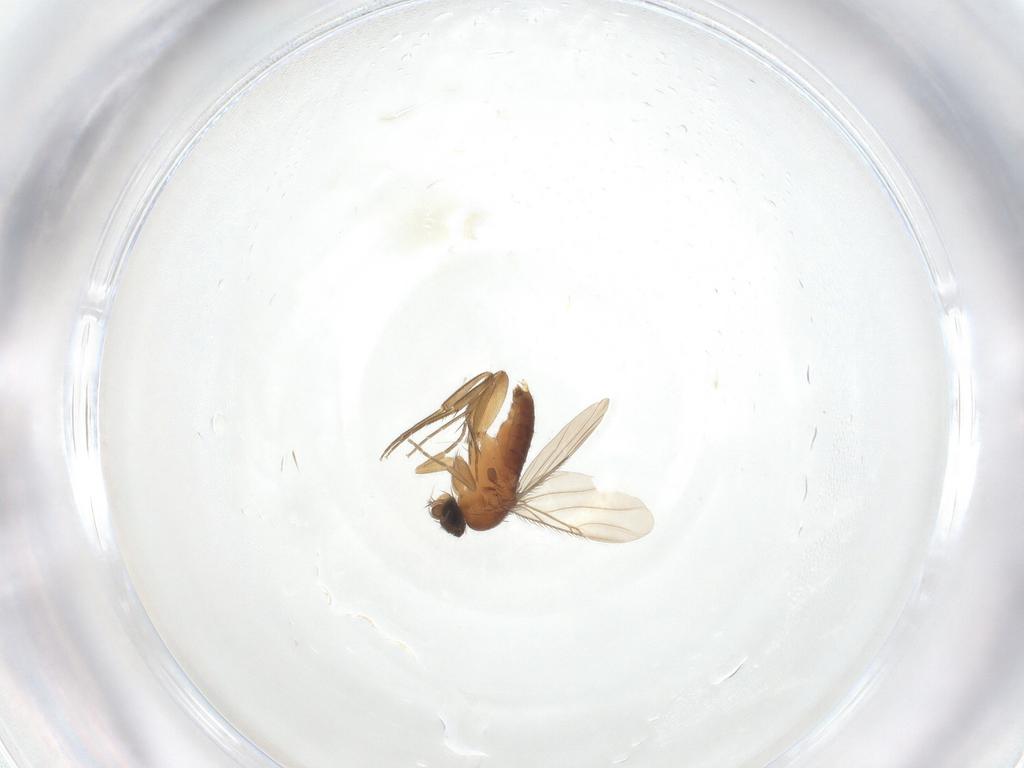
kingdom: Animalia
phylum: Arthropoda
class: Insecta
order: Diptera
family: Phoridae
